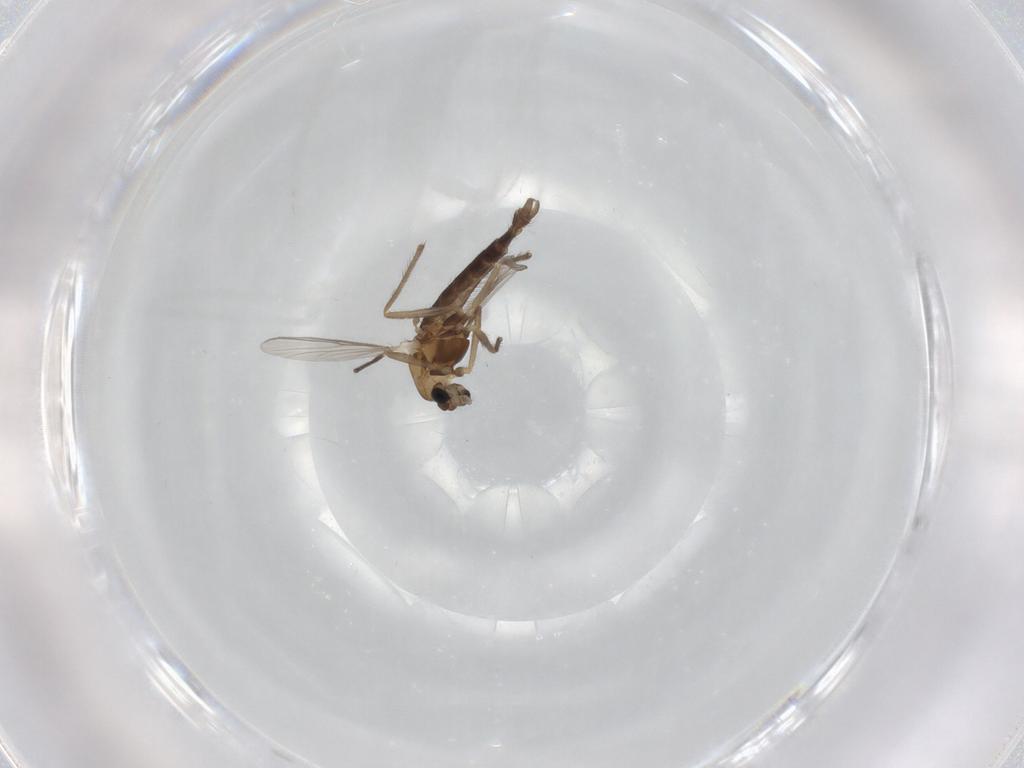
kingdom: Animalia
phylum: Arthropoda
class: Insecta
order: Diptera
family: Chironomidae
